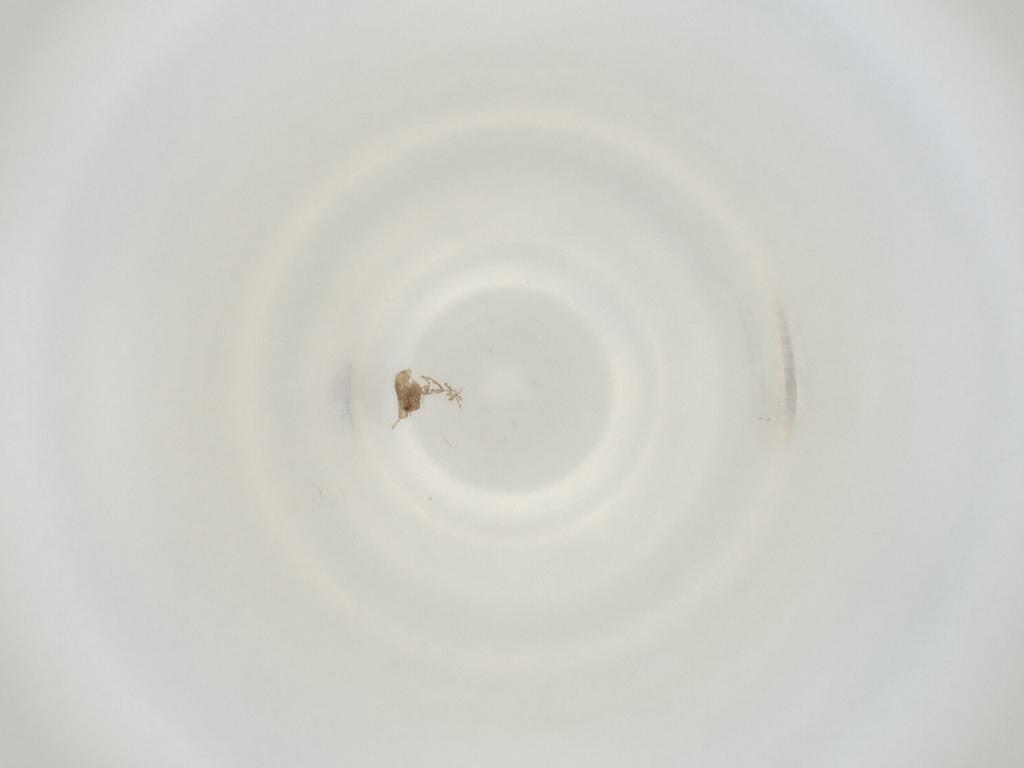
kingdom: Animalia
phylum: Arthropoda
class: Insecta
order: Diptera
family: Cecidomyiidae
